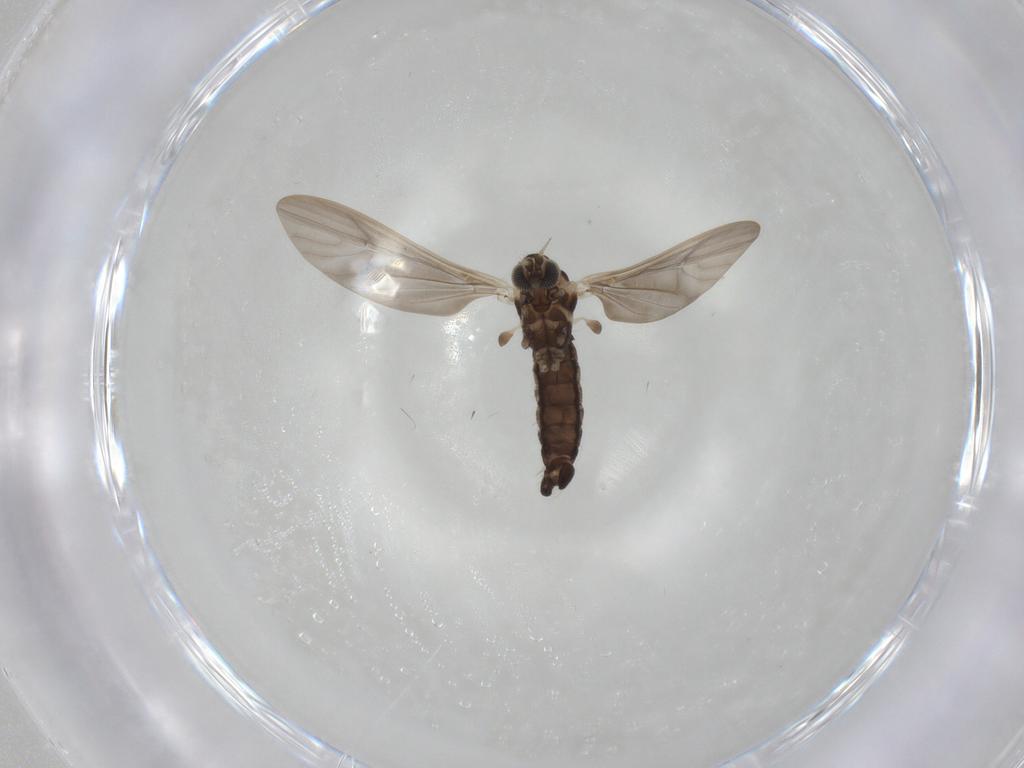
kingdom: Animalia
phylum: Arthropoda
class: Insecta
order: Diptera
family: Limoniidae
